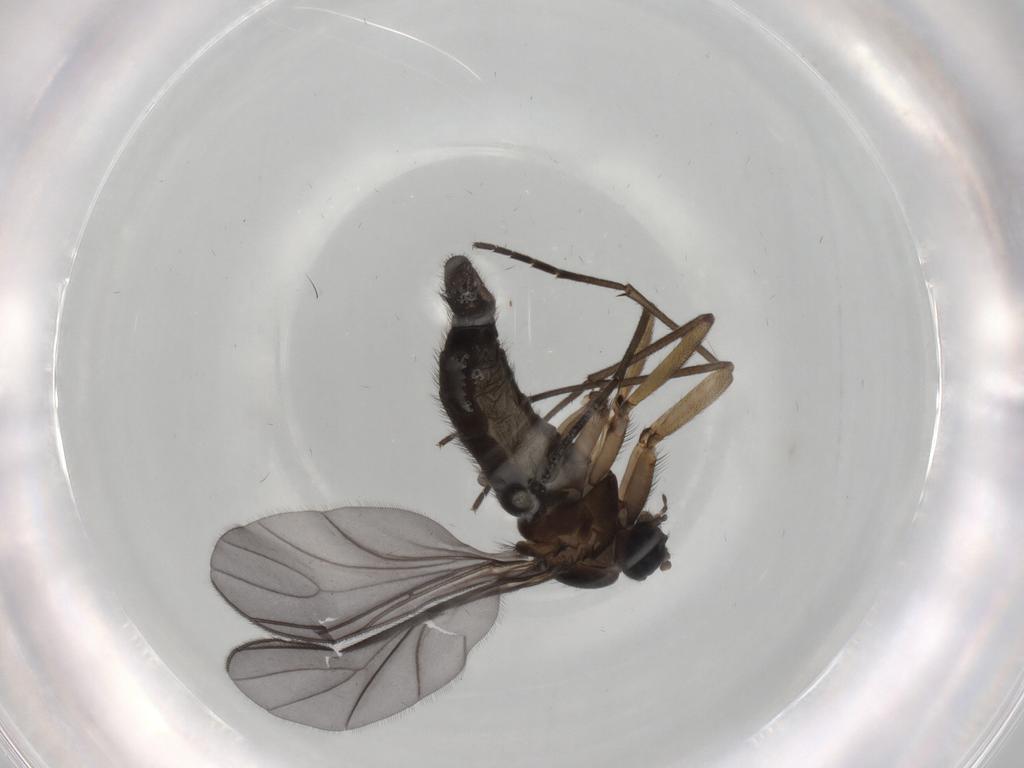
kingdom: Animalia
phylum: Arthropoda
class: Insecta
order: Diptera
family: Sciaridae
